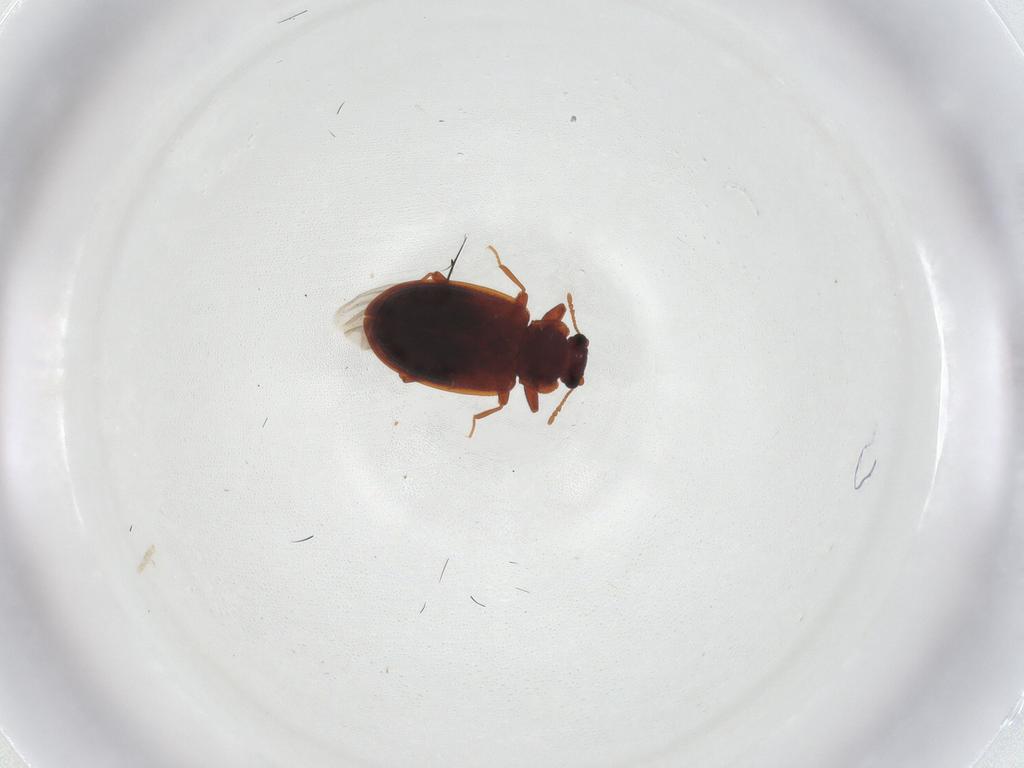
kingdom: Animalia
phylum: Arthropoda
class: Insecta
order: Coleoptera
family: Latridiidae
